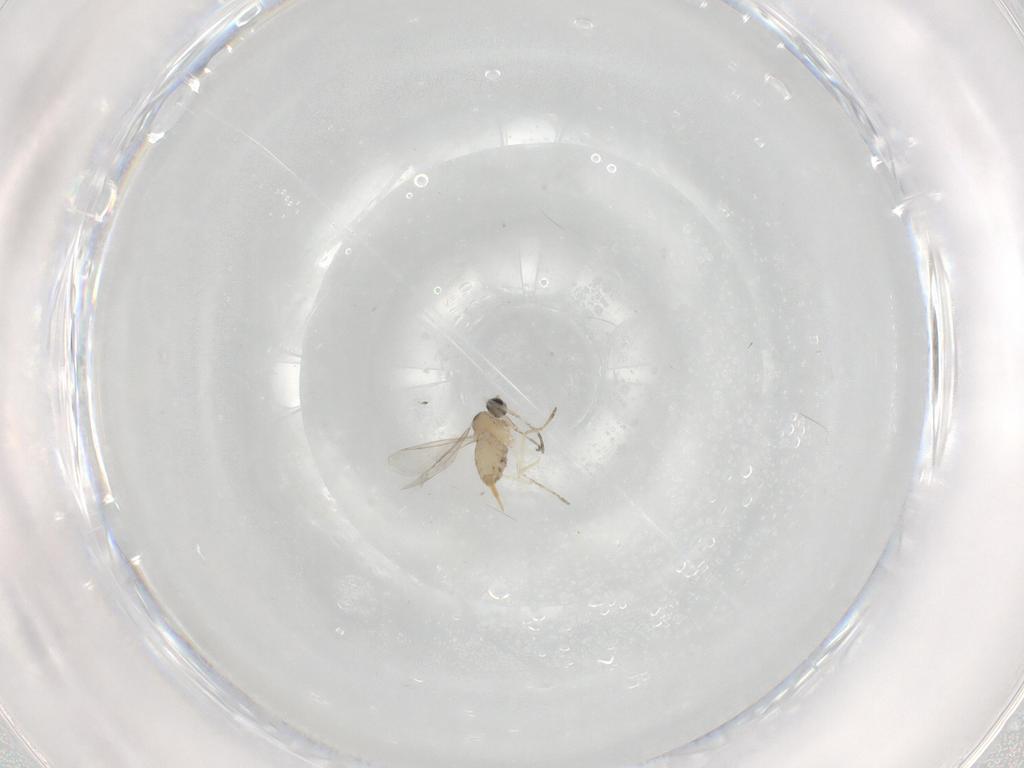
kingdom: Animalia
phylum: Arthropoda
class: Insecta
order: Diptera
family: Cecidomyiidae
